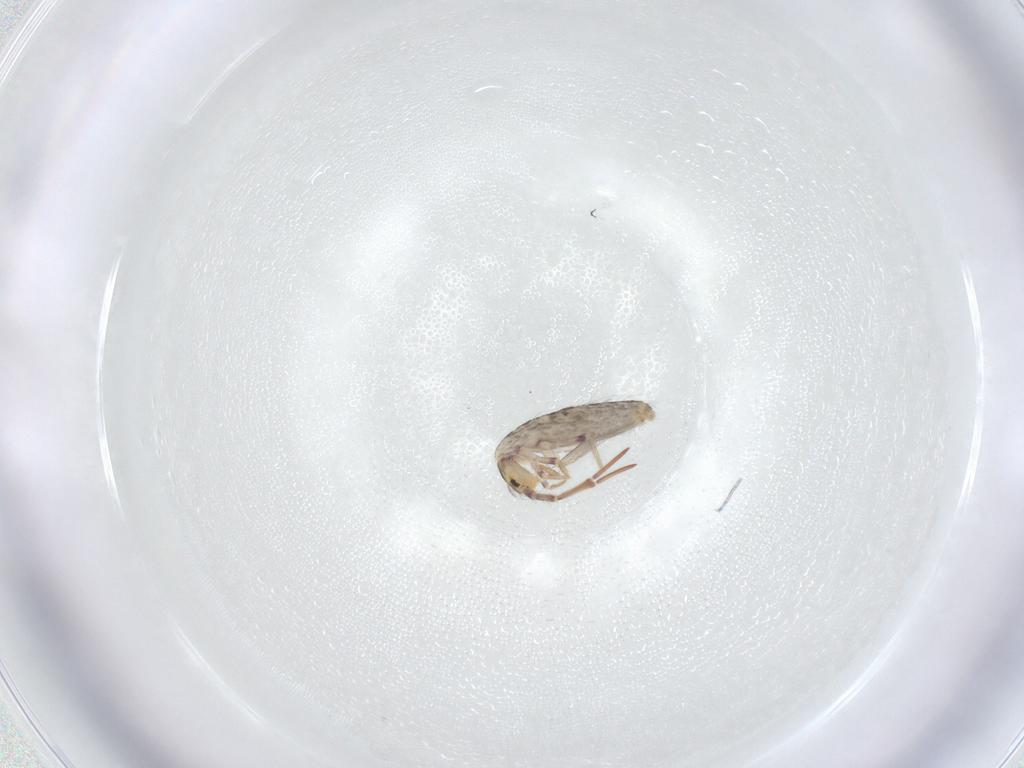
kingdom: Animalia
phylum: Arthropoda
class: Collembola
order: Entomobryomorpha
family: Entomobryidae
